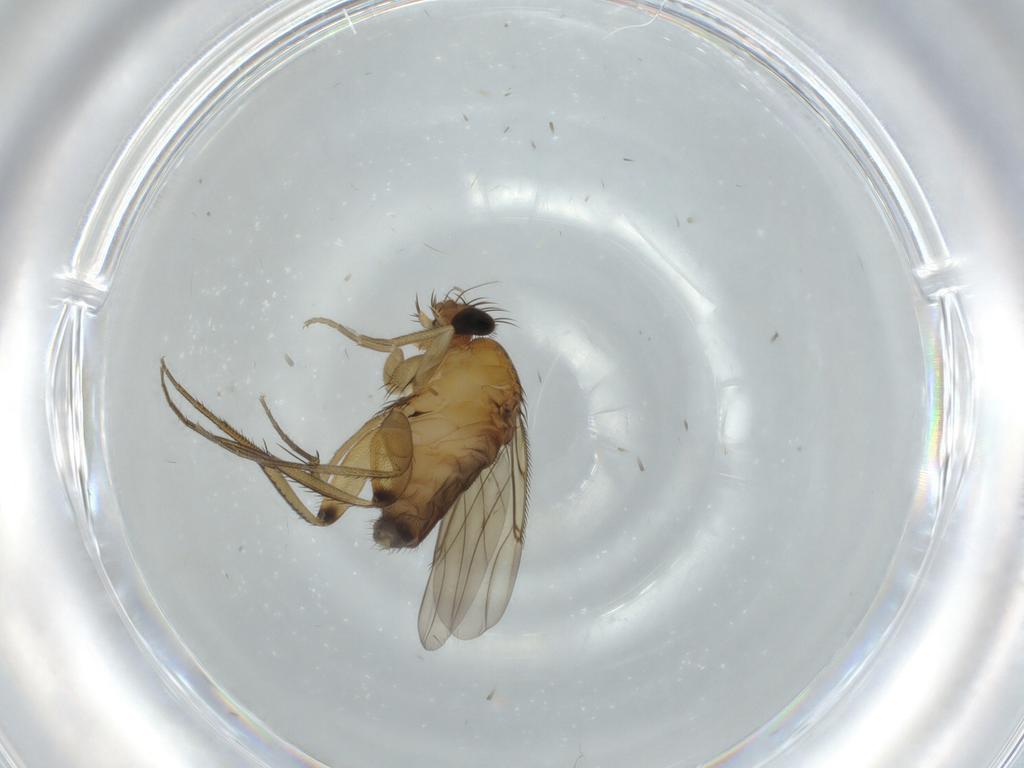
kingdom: Animalia
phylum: Arthropoda
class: Insecta
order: Diptera
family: Phoridae
